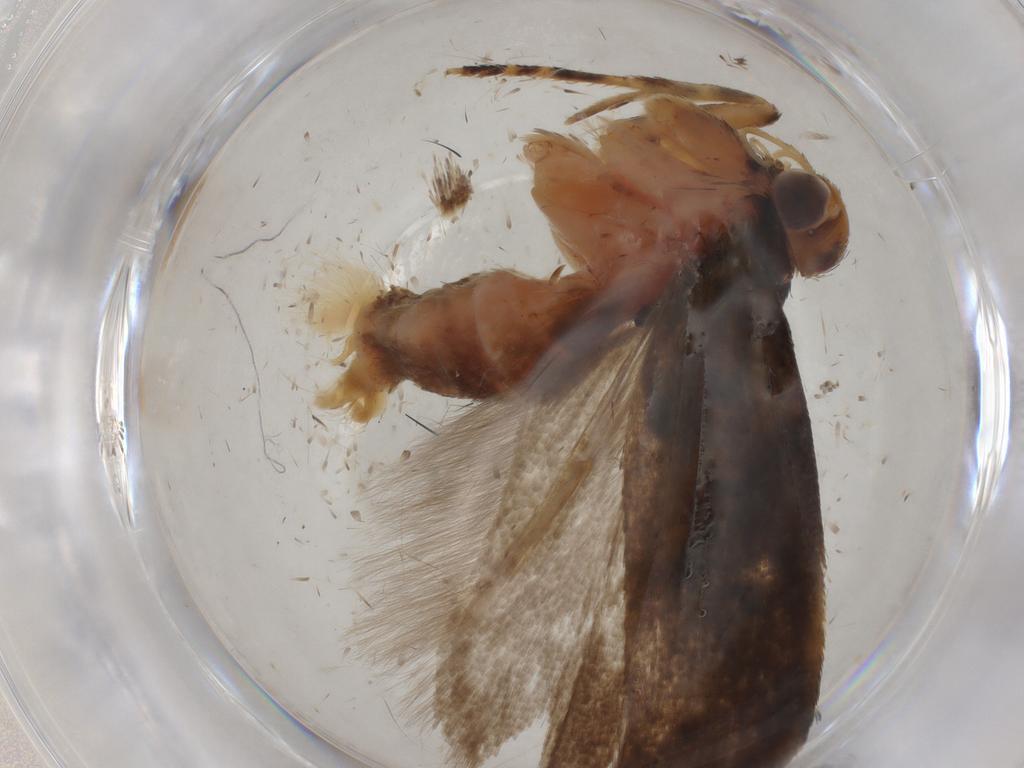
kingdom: Animalia
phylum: Arthropoda
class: Insecta
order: Lepidoptera
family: Gelechiidae
